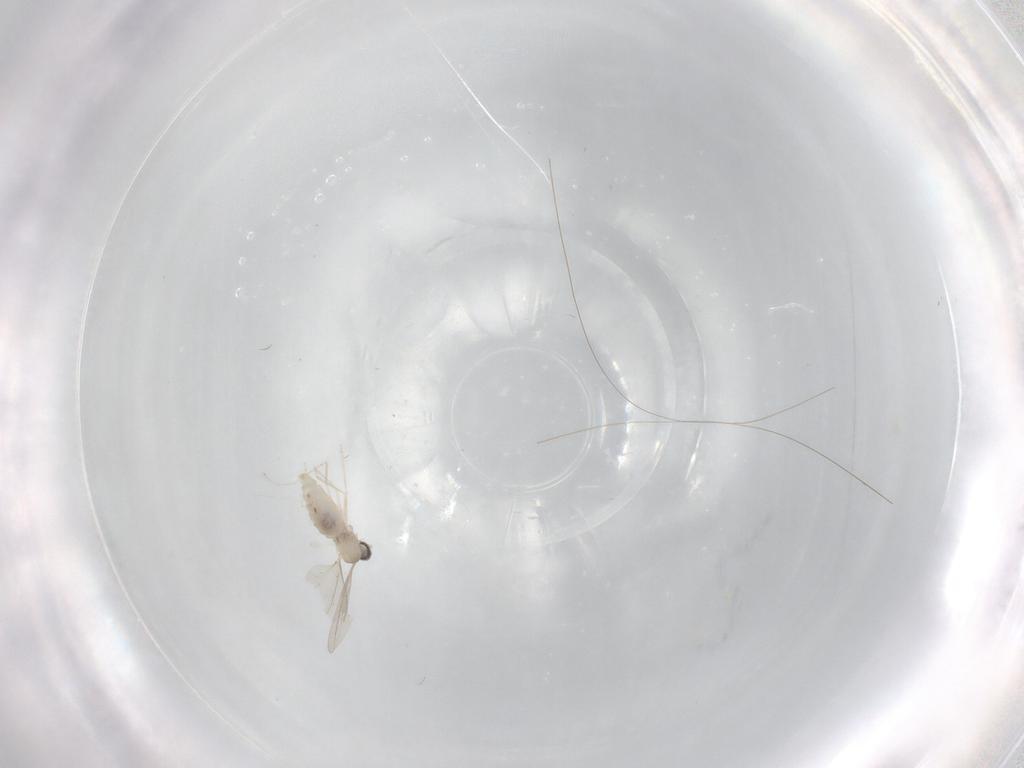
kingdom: Animalia
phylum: Arthropoda
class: Insecta
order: Diptera
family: Cecidomyiidae
